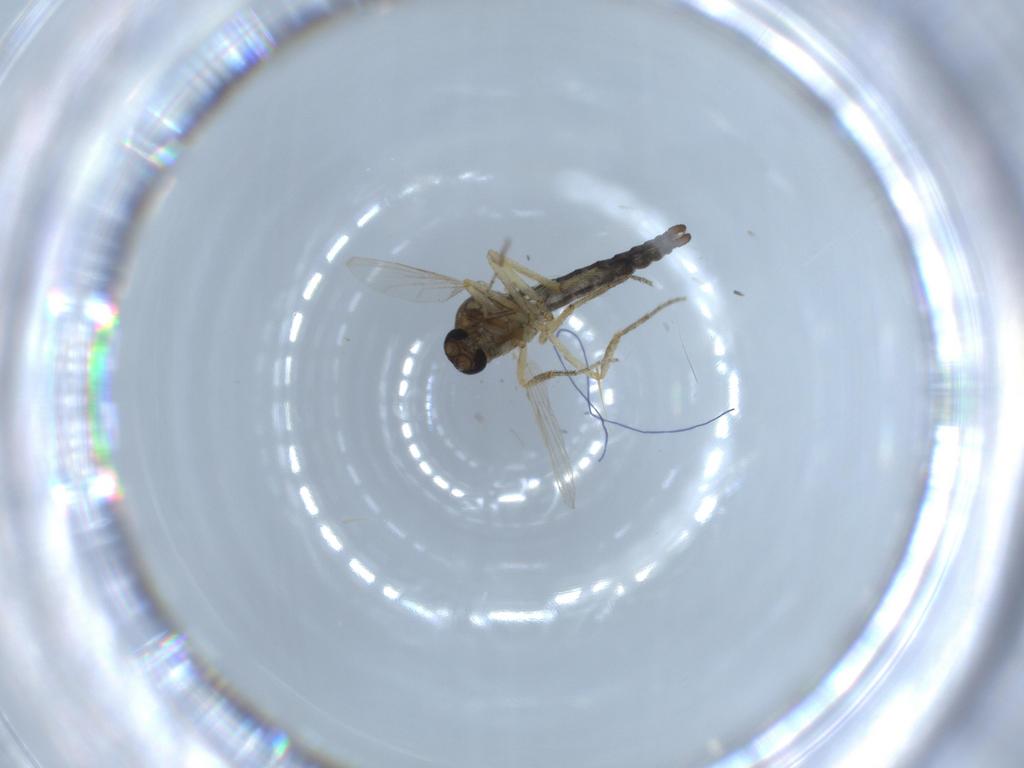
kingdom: Animalia
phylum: Arthropoda
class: Insecta
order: Diptera
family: Ceratopogonidae
